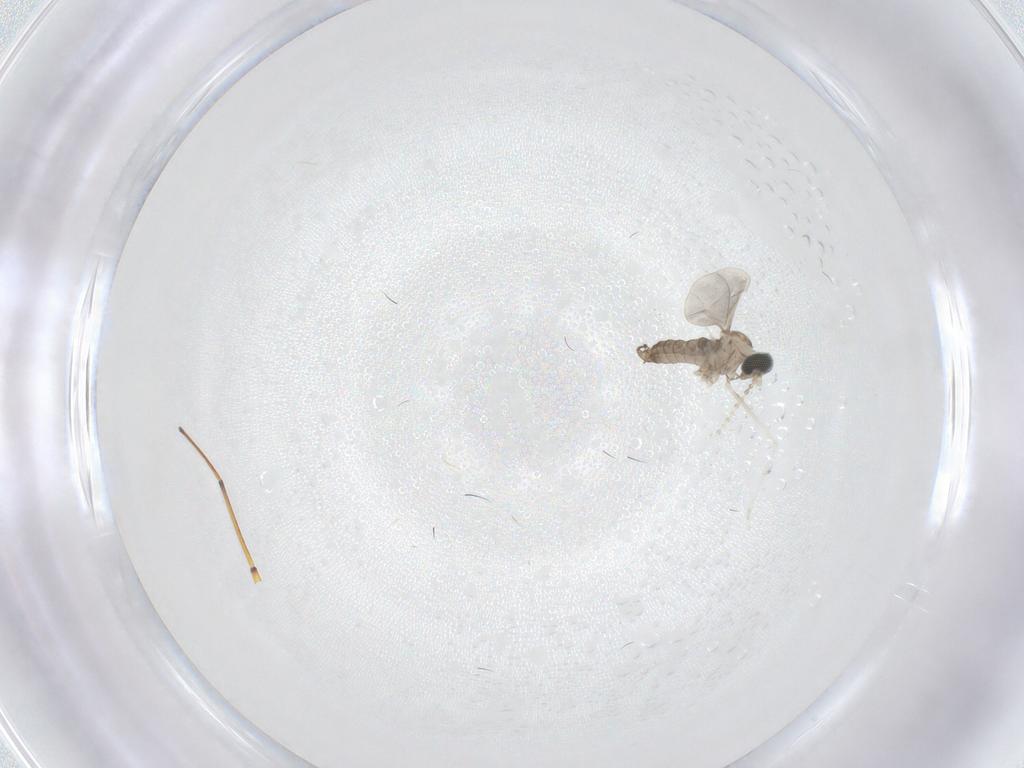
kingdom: Animalia
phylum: Arthropoda
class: Insecta
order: Diptera
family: Cecidomyiidae
